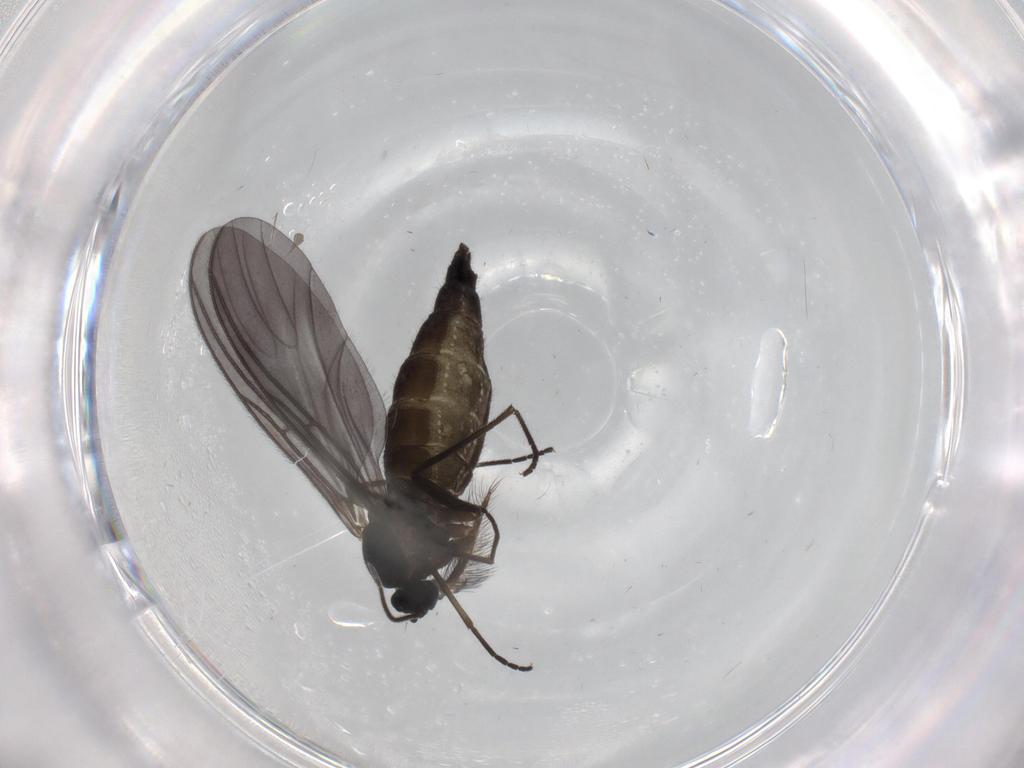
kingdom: Animalia
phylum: Arthropoda
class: Insecta
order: Diptera
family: Sciaridae
